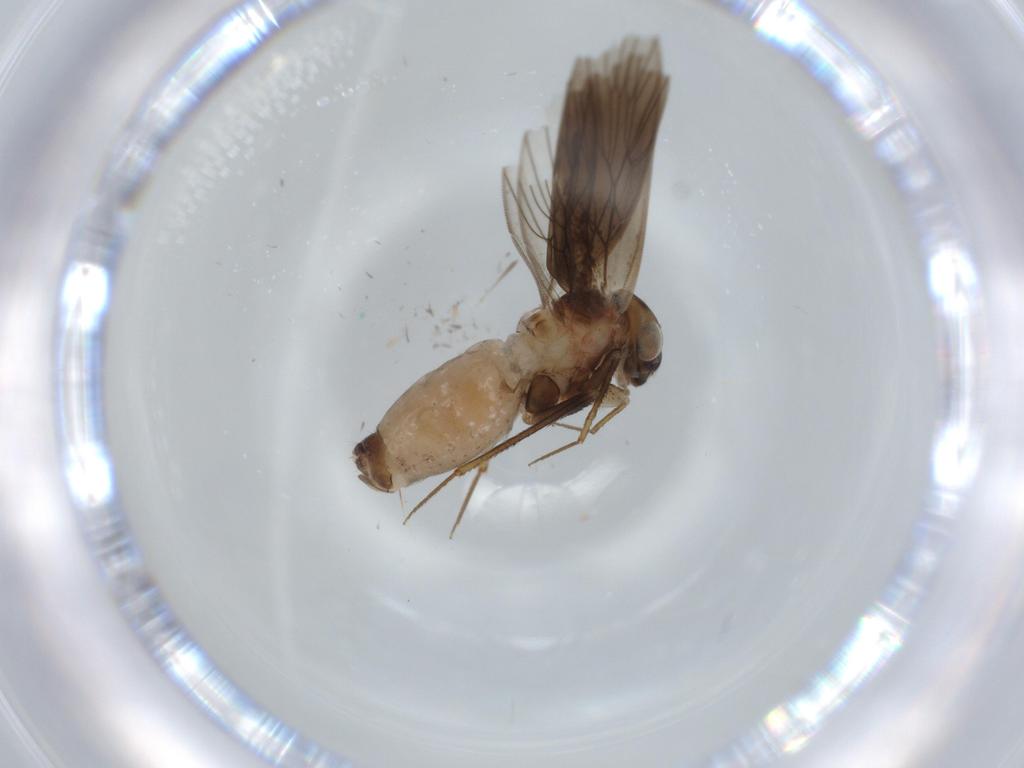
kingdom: Animalia
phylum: Arthropoda
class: Insecta
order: Psocodea
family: Lepidopsocidae
